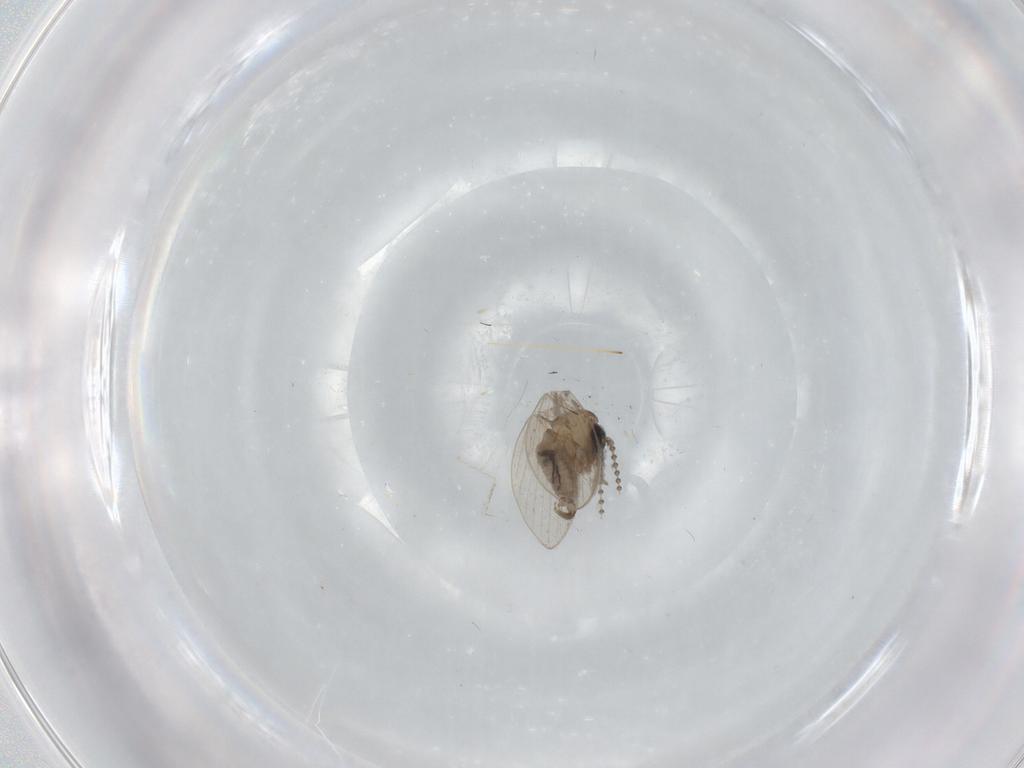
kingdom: Animalia
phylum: Arthropoda
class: Insecta
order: Diptera
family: Psychodidae
